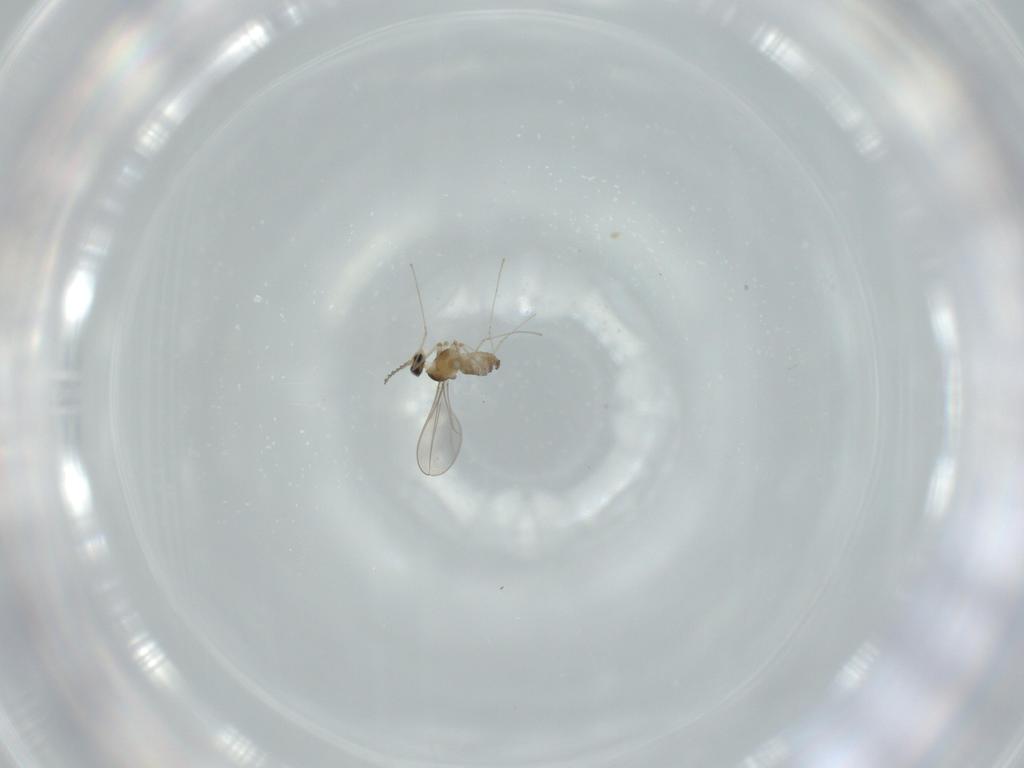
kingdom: Animalia
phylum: Arthropoda
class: Insecta
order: Diptera
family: Cecidomyiidae
